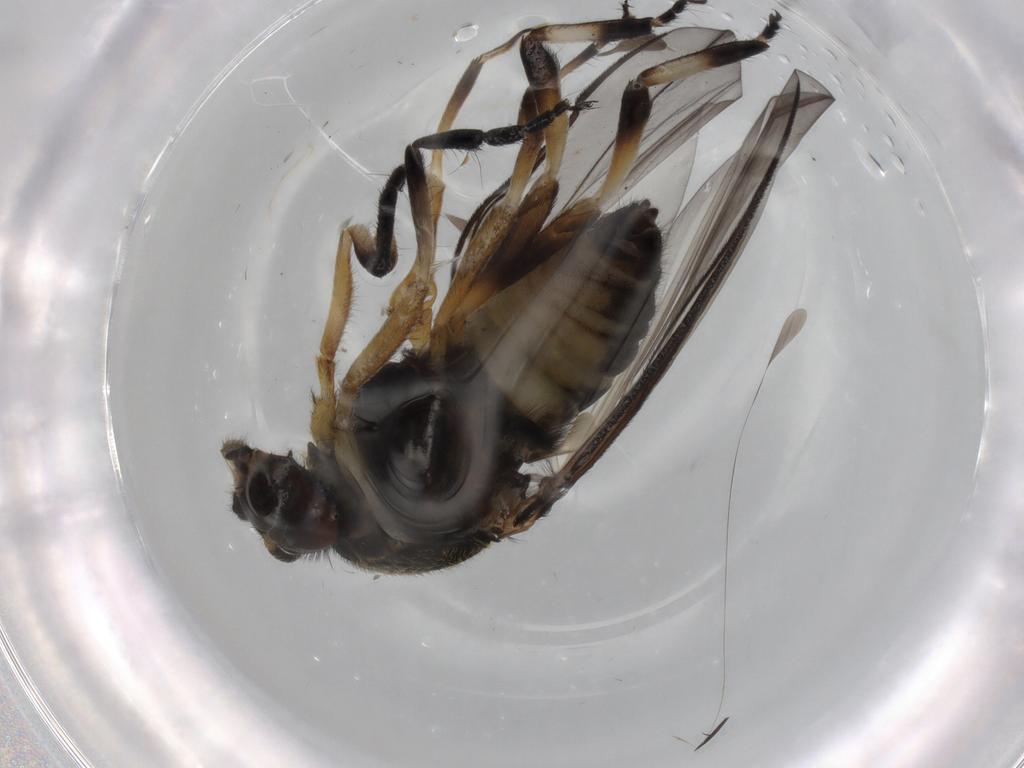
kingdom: Animalia
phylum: Arthropoda
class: Insecta
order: Diptera
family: Simuliidae
